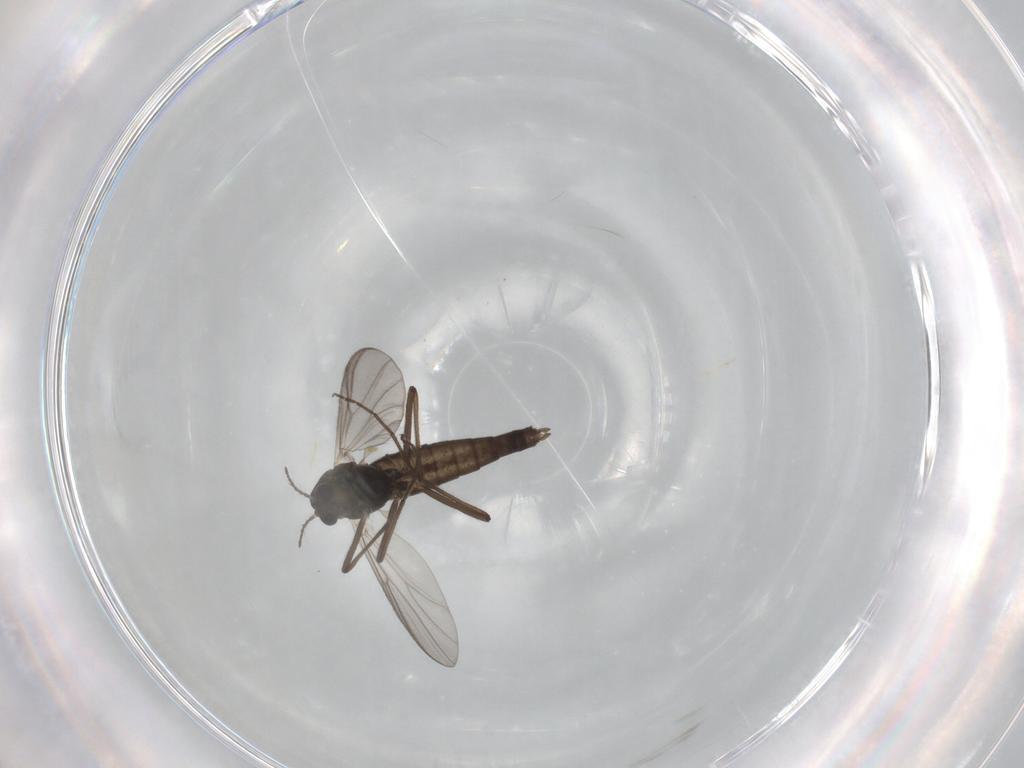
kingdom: Animalia
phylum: Arthropoda
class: Insecta
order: Diptera
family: Chironomidae
